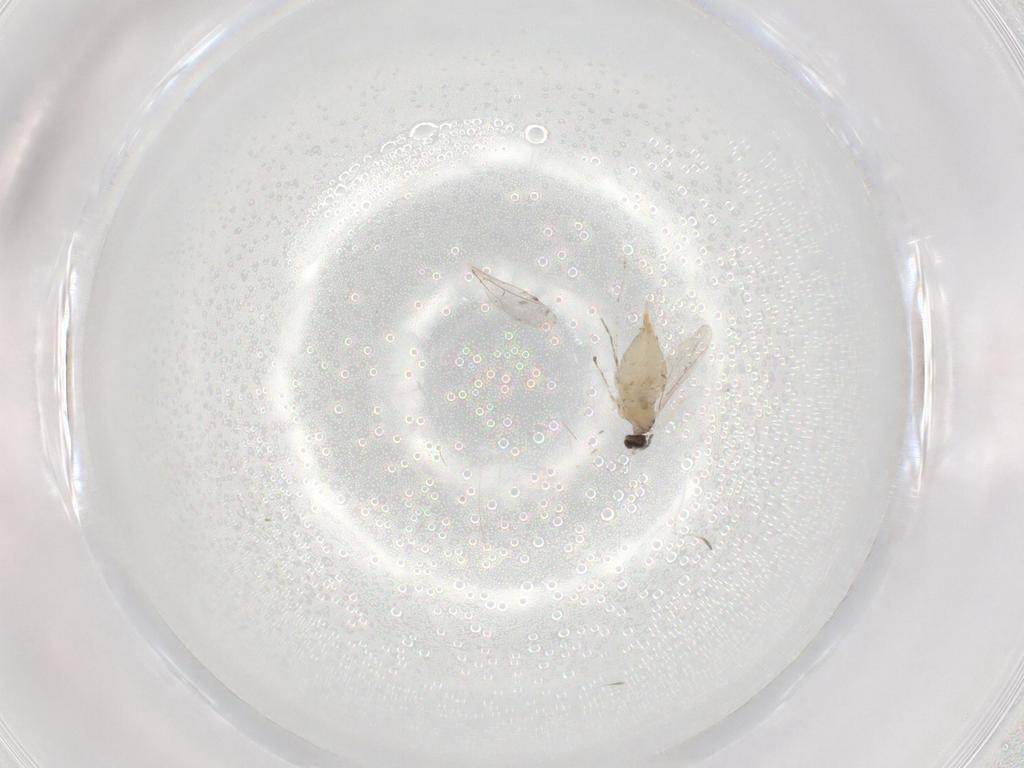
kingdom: Animalia
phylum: Arthropoda
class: Insecta
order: Diptera
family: Cecidomyiidae
